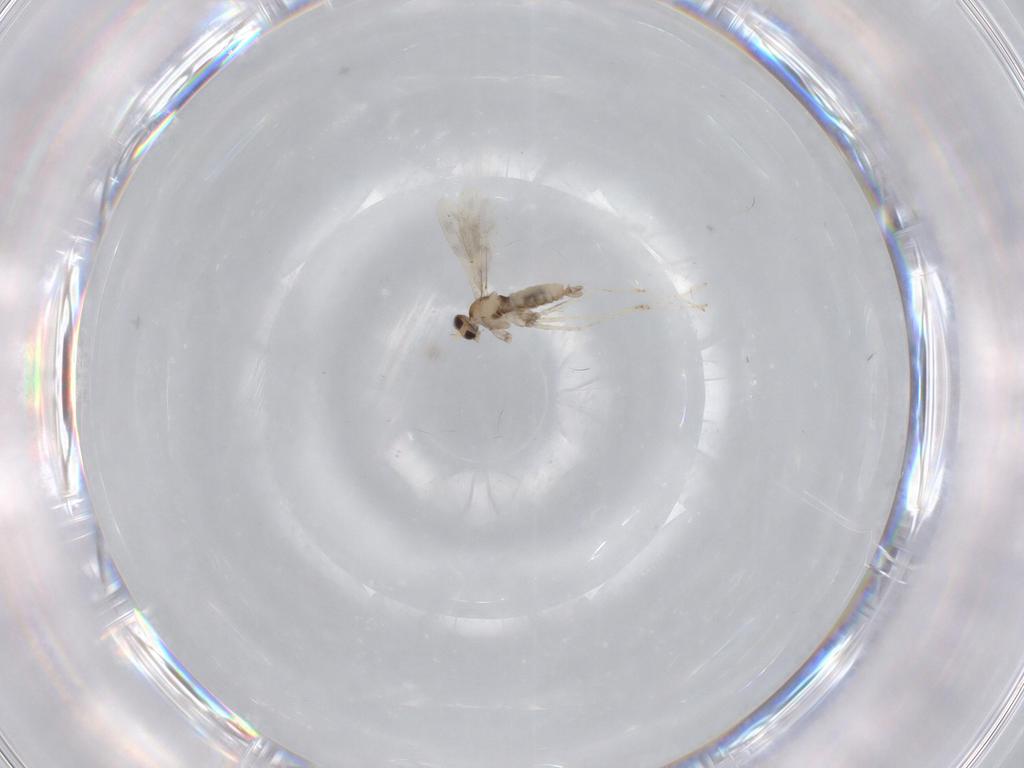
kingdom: Animalia
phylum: Arthropoda
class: Insecta
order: Diptera
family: Cecidomyiidae
